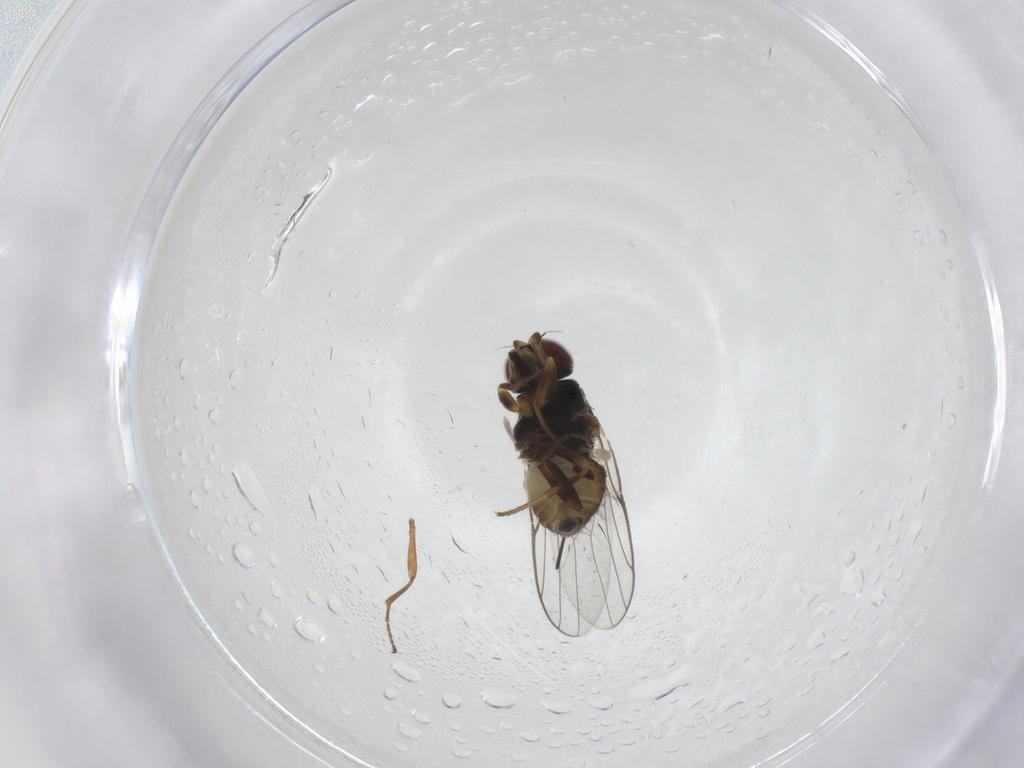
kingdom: Animalia
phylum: Arthropoda
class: Insecta
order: Diptera
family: Chloropidae
